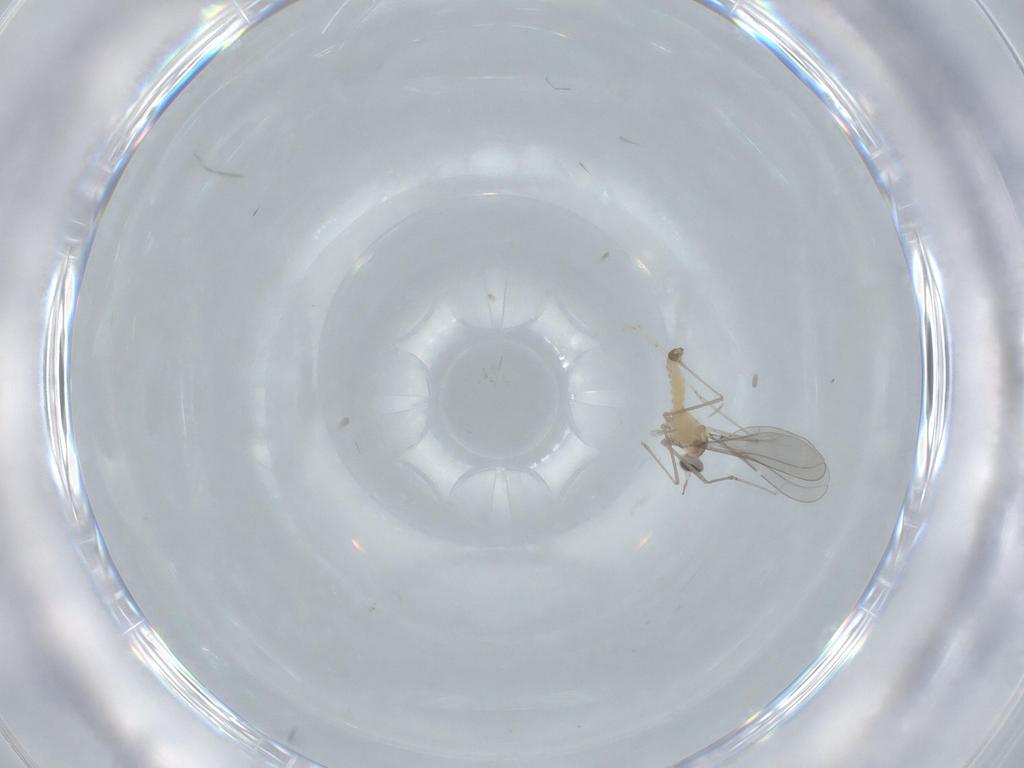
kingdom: Animalia
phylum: Arthropoda
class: Insecta
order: Diptera
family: Cecidomyiidae
